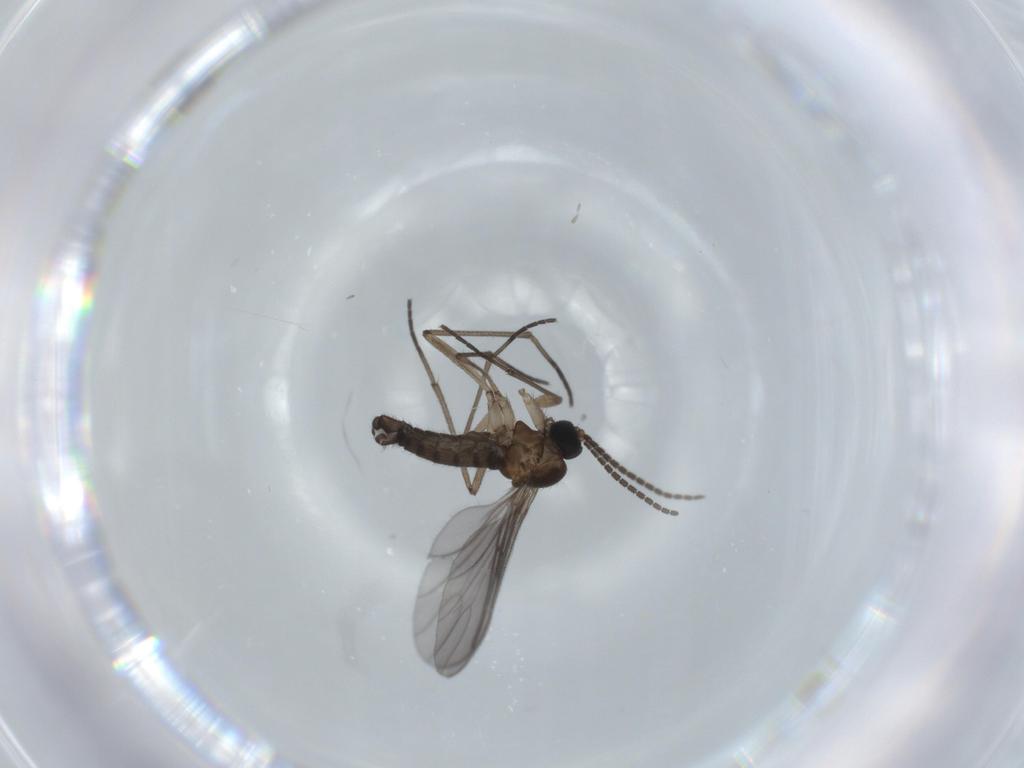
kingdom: Animalia
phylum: Arthropoda
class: Insecta
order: Diptera
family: Sciaridae
